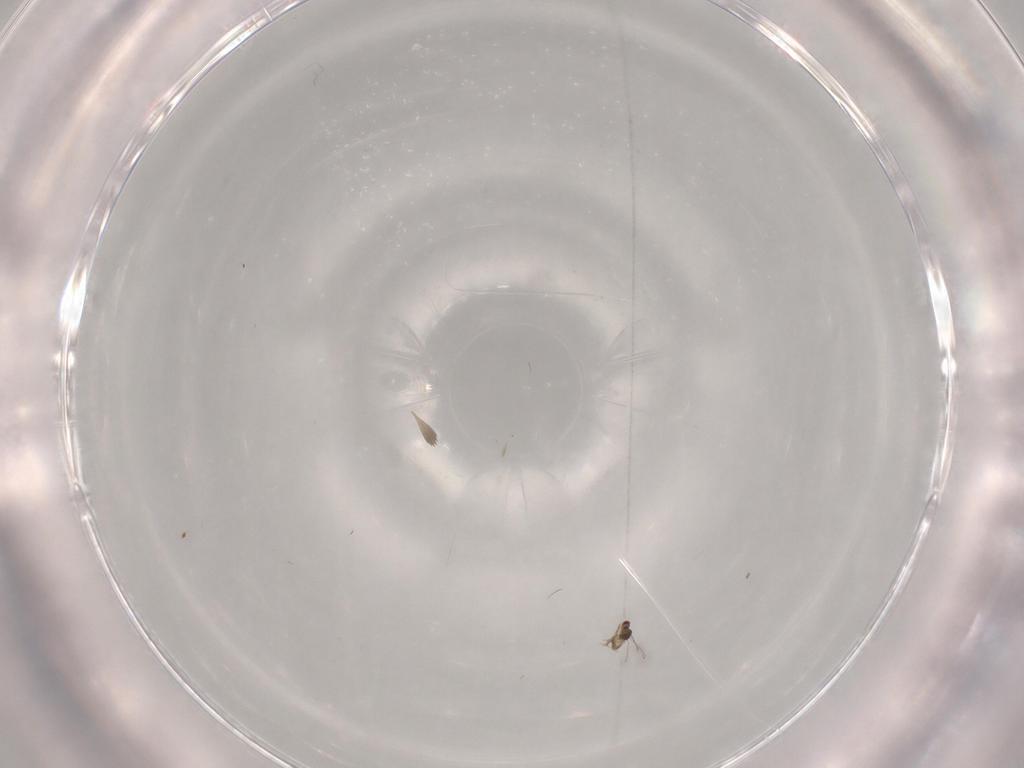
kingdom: Animalia
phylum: Arthropoda
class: Insecta
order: Hymenoptera
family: Mymaridae
